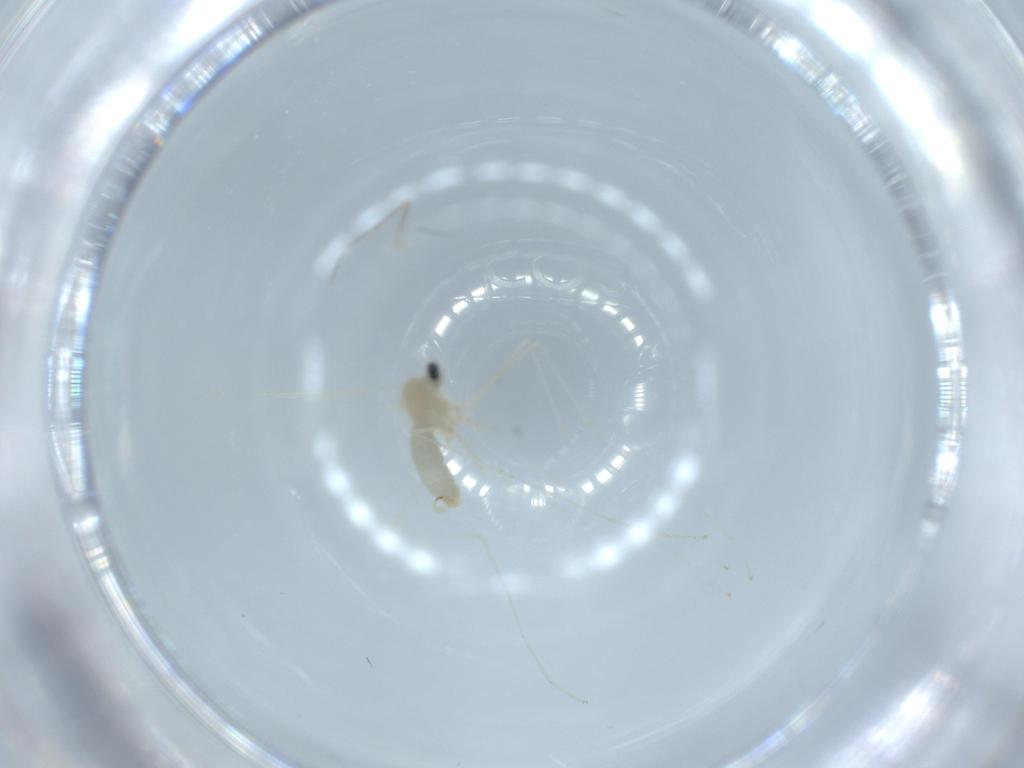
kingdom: Animalia
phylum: Arthropoda
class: Insecta
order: Diptera
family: Cecidomyiidae
